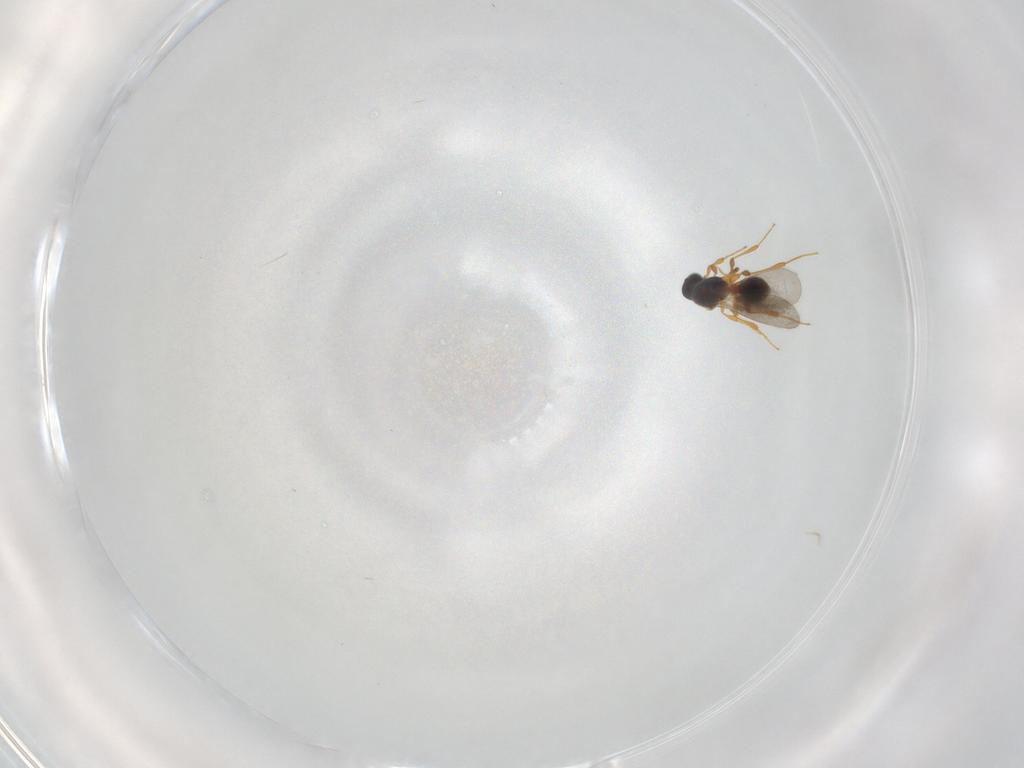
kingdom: Animalia
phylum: Arthropoda
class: Insecta
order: Hymenoptera
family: Platygastridae
